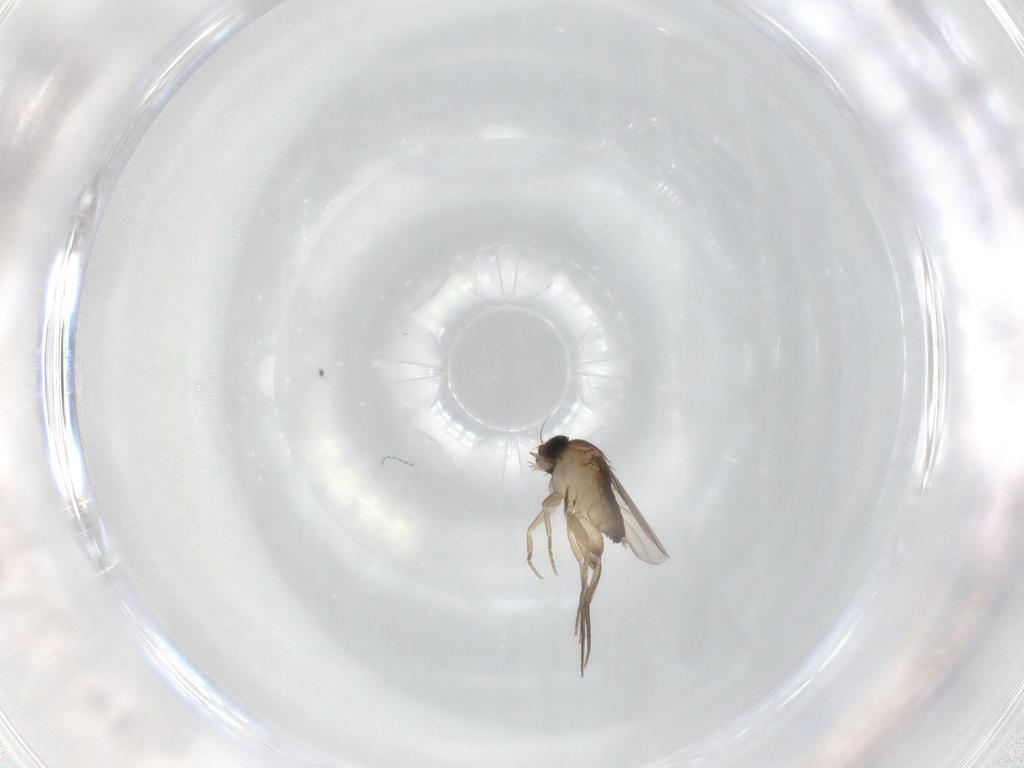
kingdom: Animalia
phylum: Arthropoda
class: Insecta
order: Diptera
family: Phoridae
